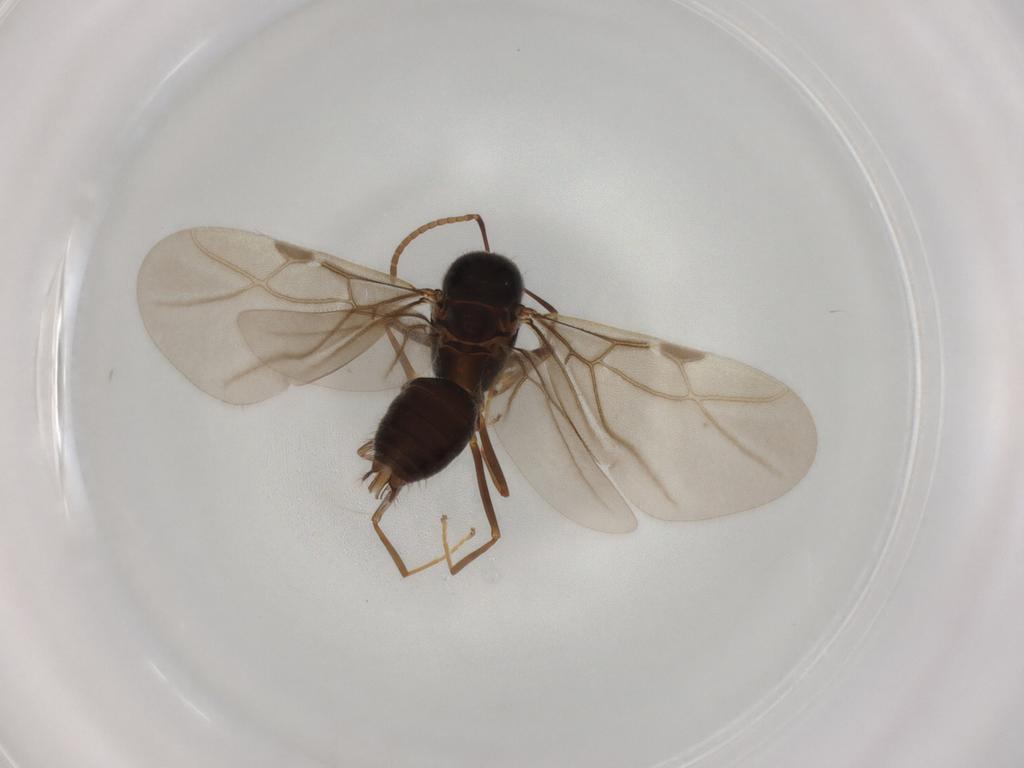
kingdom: Animalia
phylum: Arthropoda
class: Insecta
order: Hymenoptera
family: Formicidae
